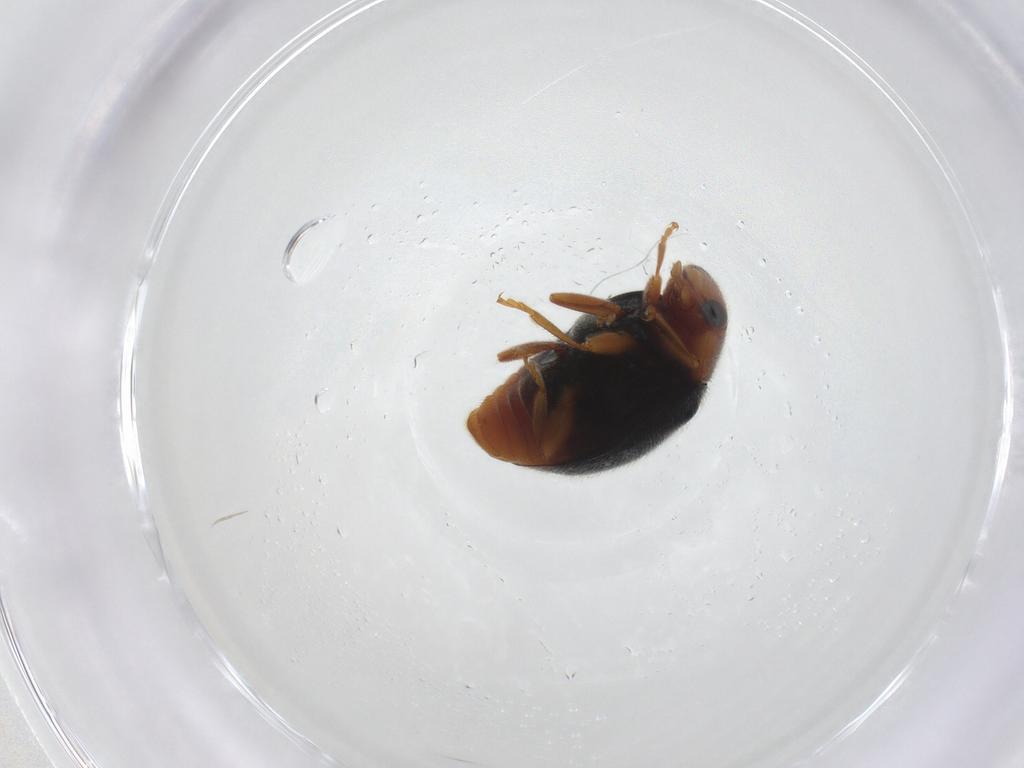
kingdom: Animalia
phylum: Arthropoda
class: Insecta
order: Coleoptera
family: Coccinellidae
